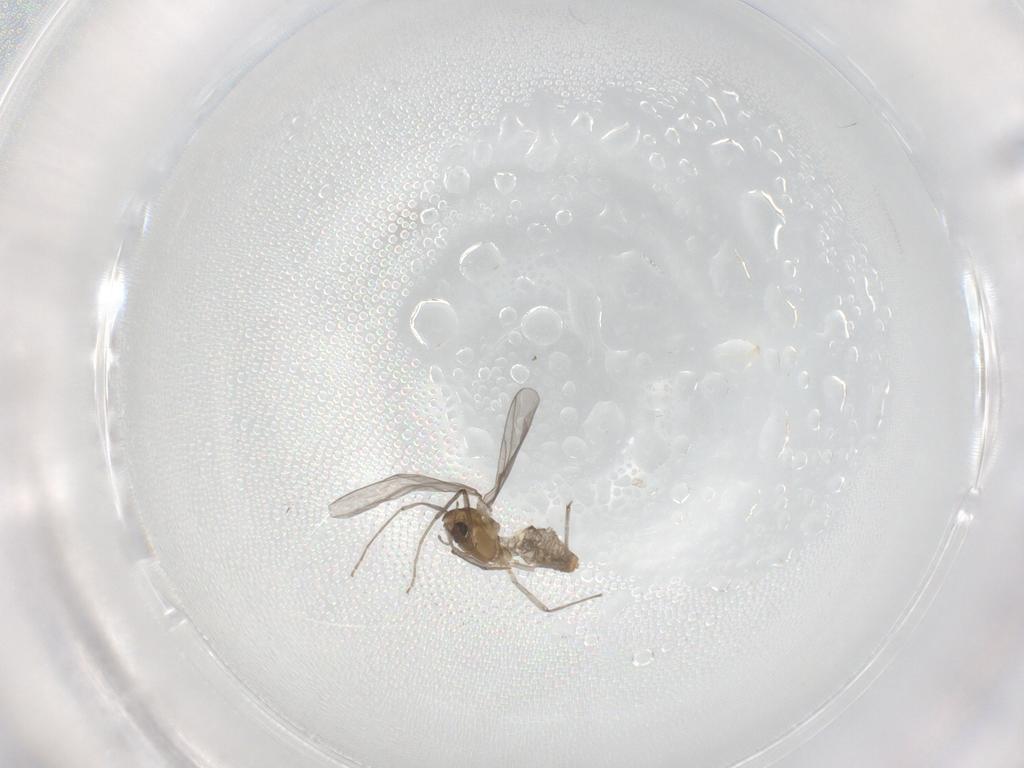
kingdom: Animalia
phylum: Arthropoda
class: Insecta
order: Diptera
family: Chironomidae
